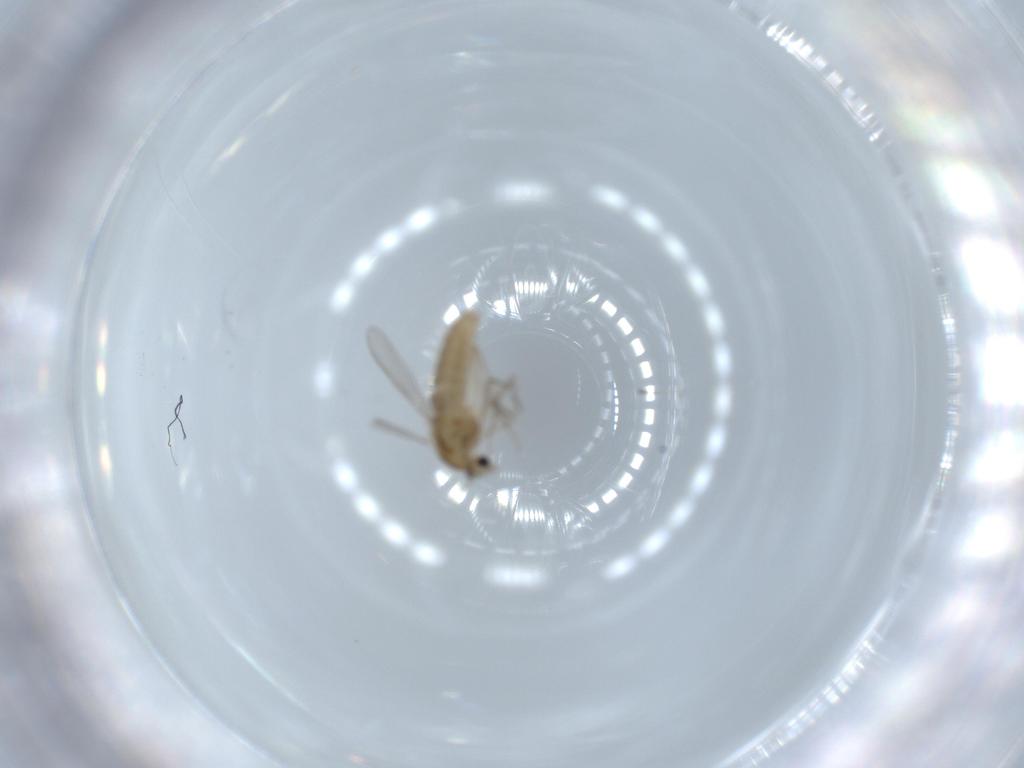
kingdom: Animalia
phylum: Arthropoda
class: Insecta
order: Diptera
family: Chironomidae
